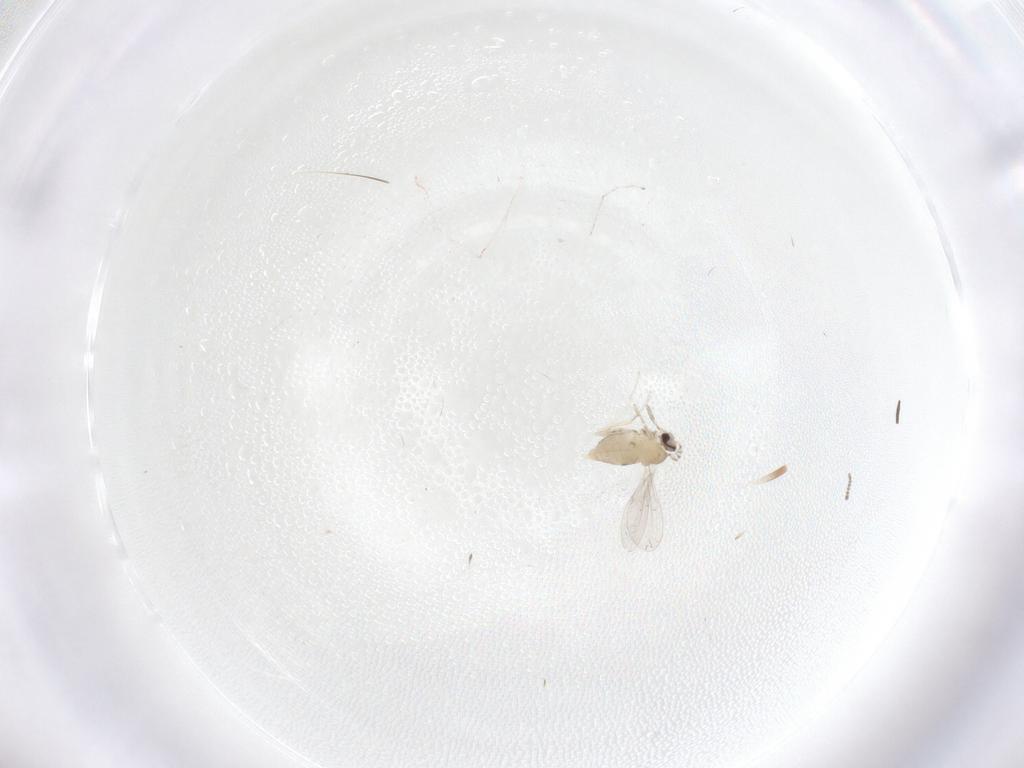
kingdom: Animalia
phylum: Arthropoda
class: Insecta
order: Diptera
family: Cecidomyiidae
